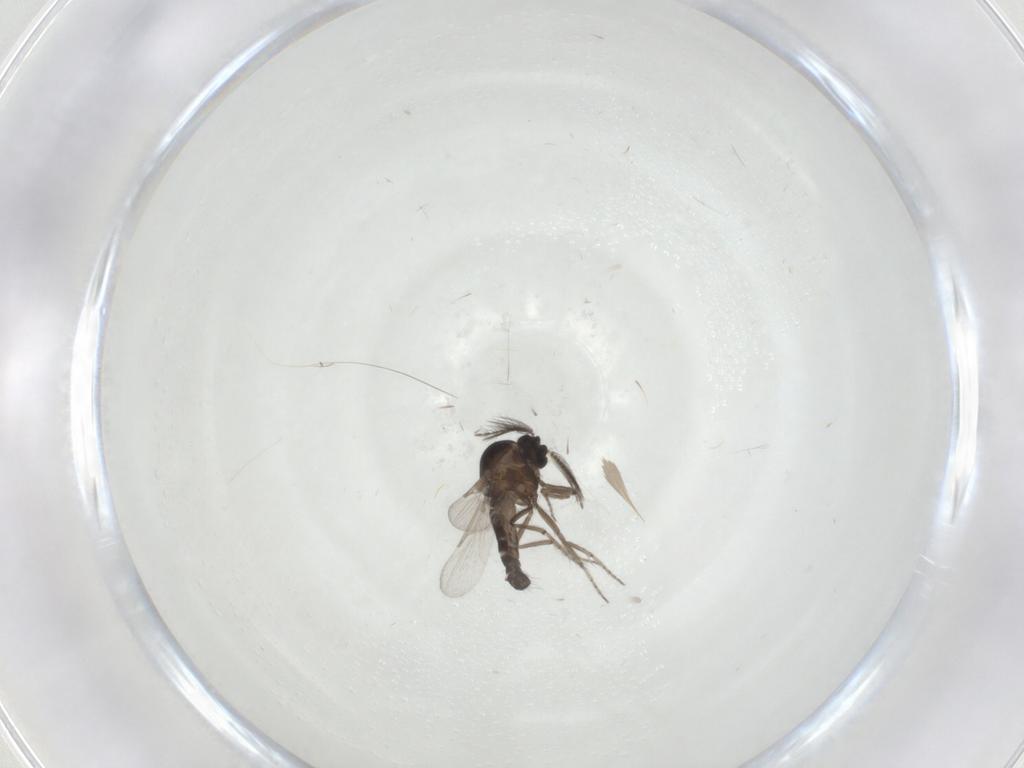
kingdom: Animalia
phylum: Arthropoda
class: Insecta
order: Diptera
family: Ceratopogonidae
